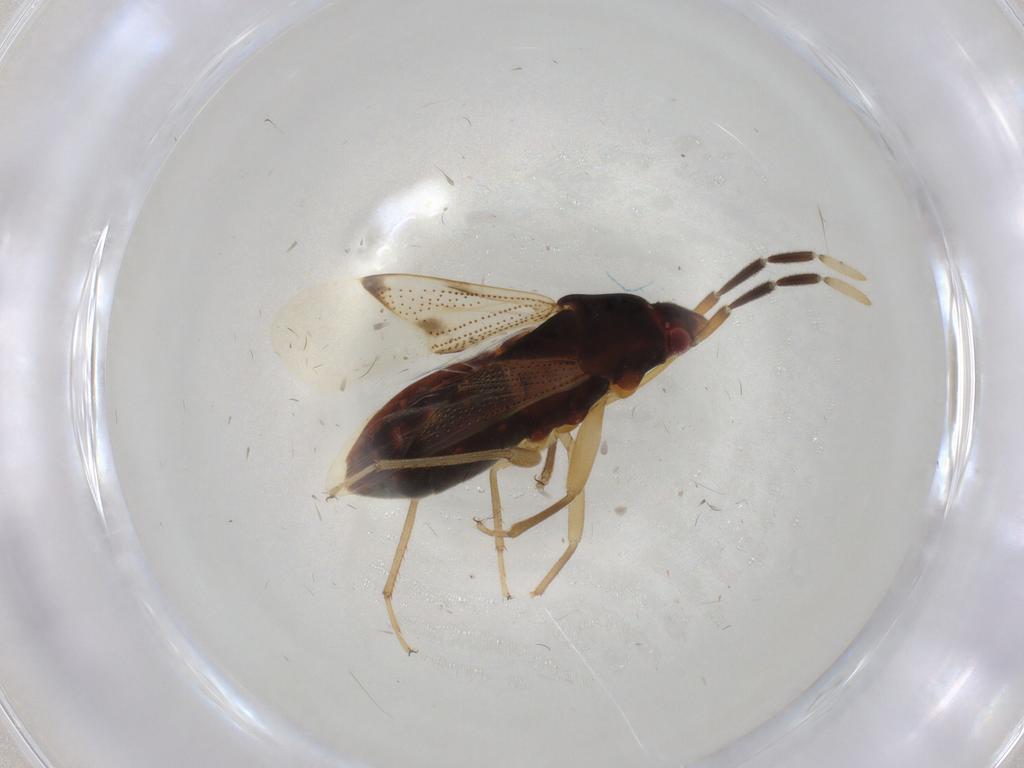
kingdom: Animalia
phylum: Arthropoda
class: Insecta
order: Hemiptera
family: Rhyparochromidae
